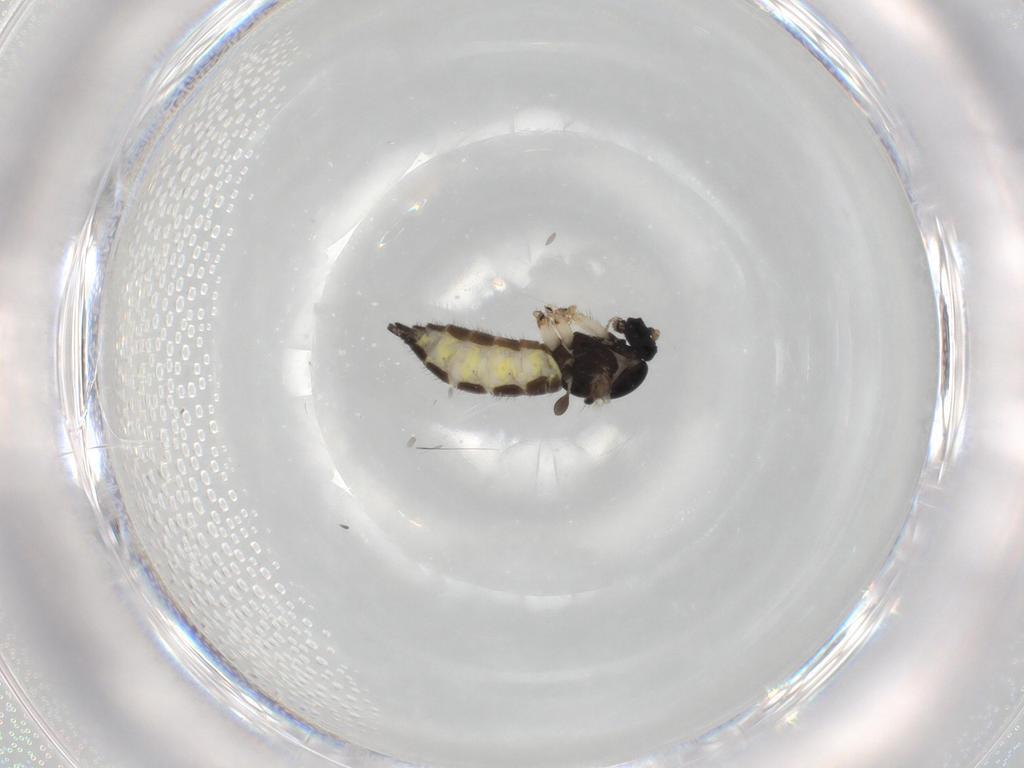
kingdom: Animalia
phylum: Arthropoda
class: Insecta
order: Diptera
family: Sciaridae
